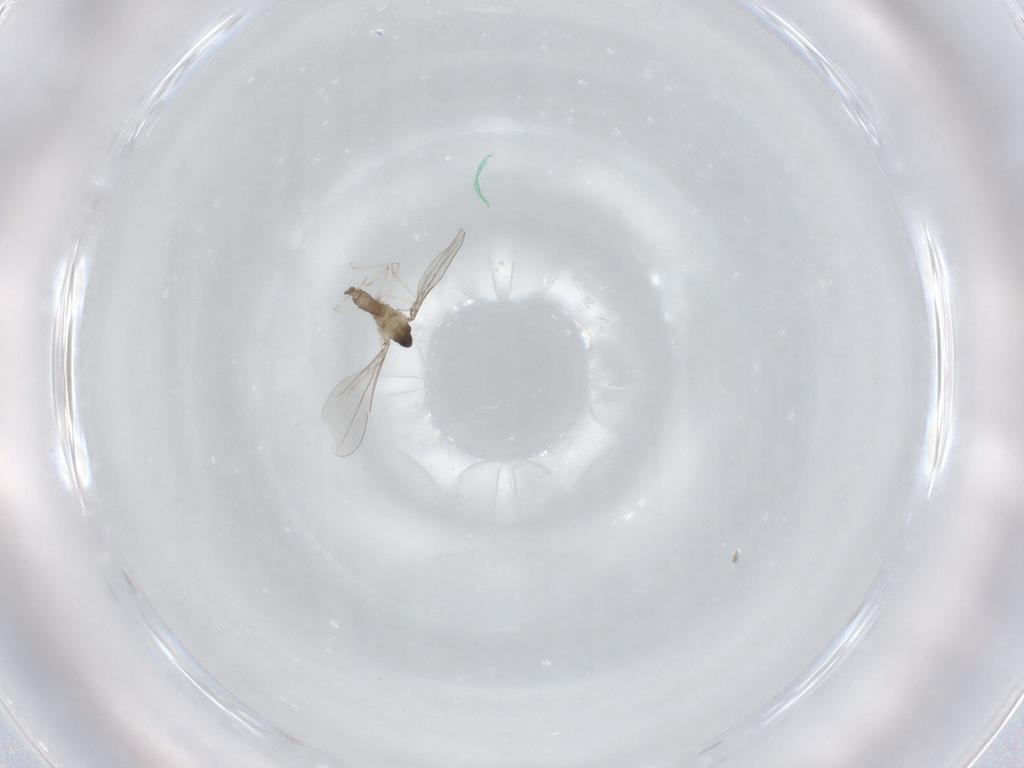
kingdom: Animalia
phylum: Arthropoda
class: Insecta
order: Diptera
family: Cecidomyiidae
